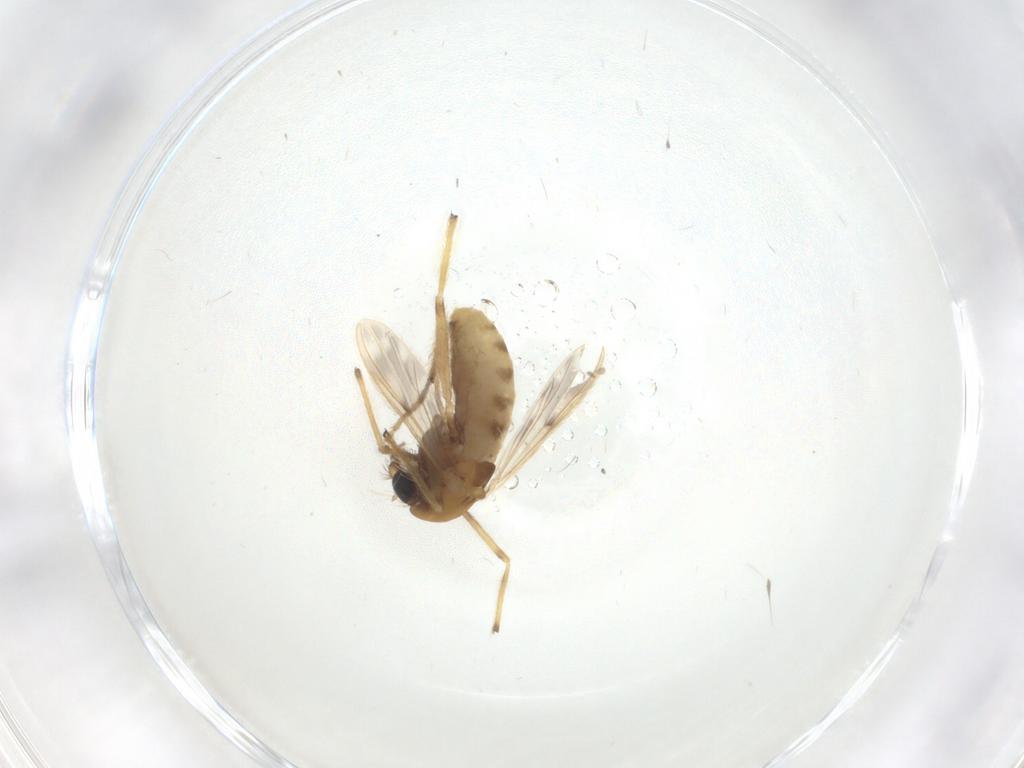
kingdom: Animalia
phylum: Arthropoda
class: Insecta
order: Diptera
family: Chironomidae
